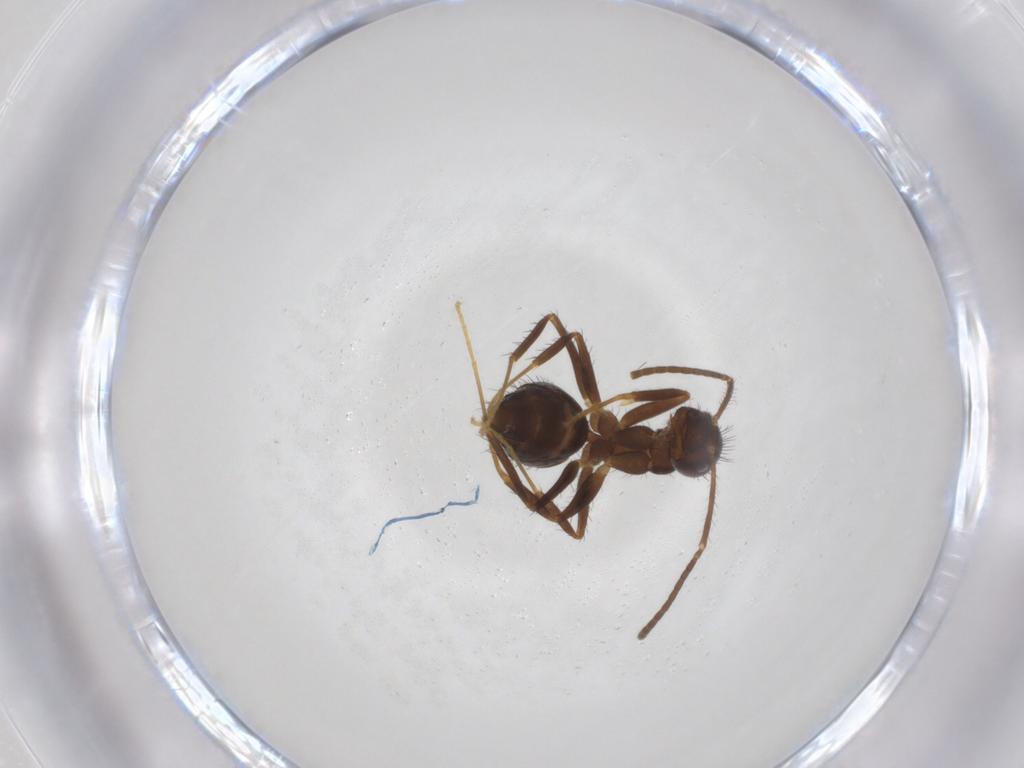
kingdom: Animalia
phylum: Arthropoda
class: Insecta
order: Hymenoptera
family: Formicidae
